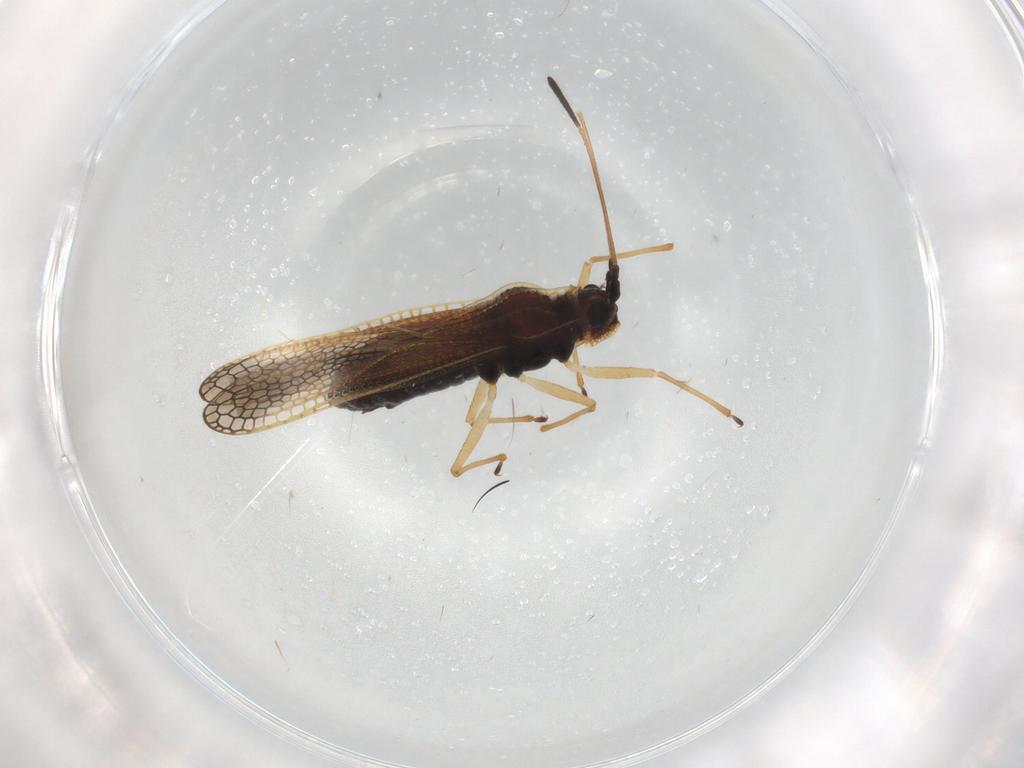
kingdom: Animalia
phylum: Arthropoda
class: Insecta
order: Hemiptera
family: Tingidae
